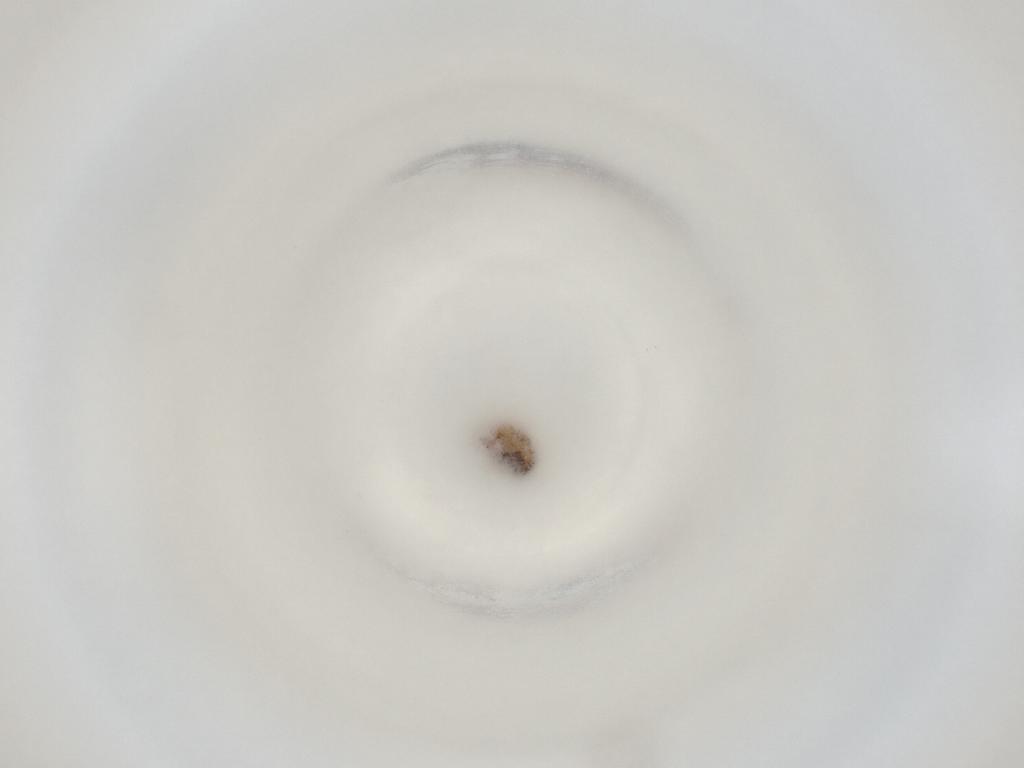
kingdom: Animalia
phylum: Arthropoda
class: Insecta
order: Diptera
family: Cecidomyiidae
